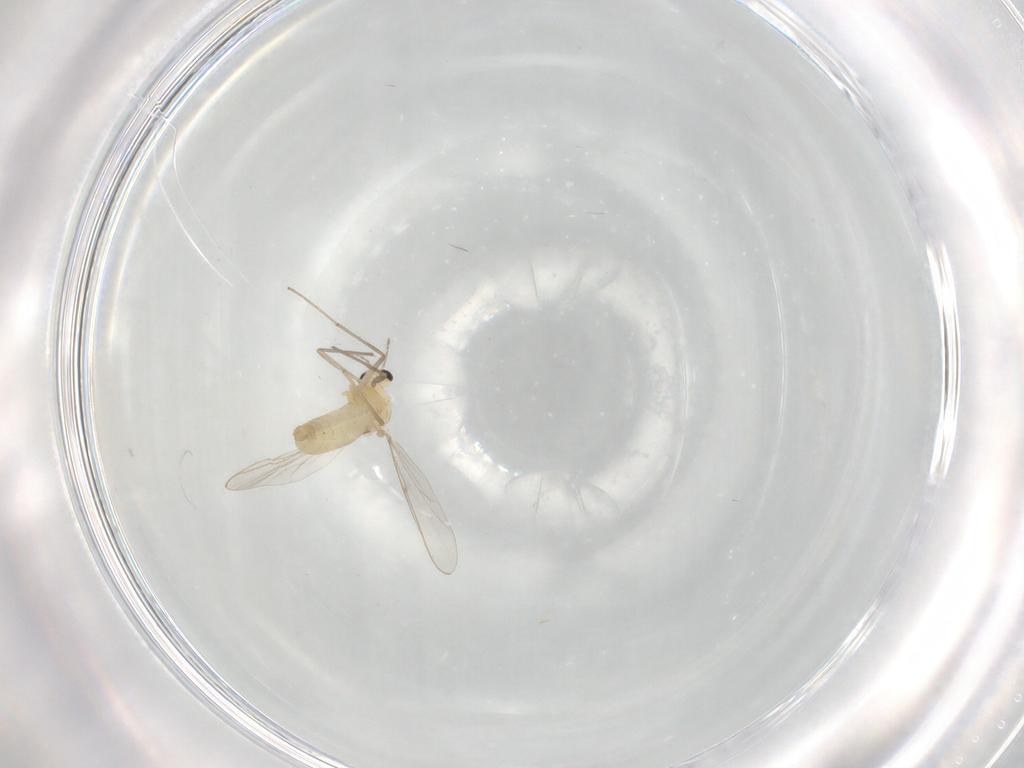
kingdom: Animalia
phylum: Arthropoda
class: Insecta
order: Diptera
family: Chironomidae
